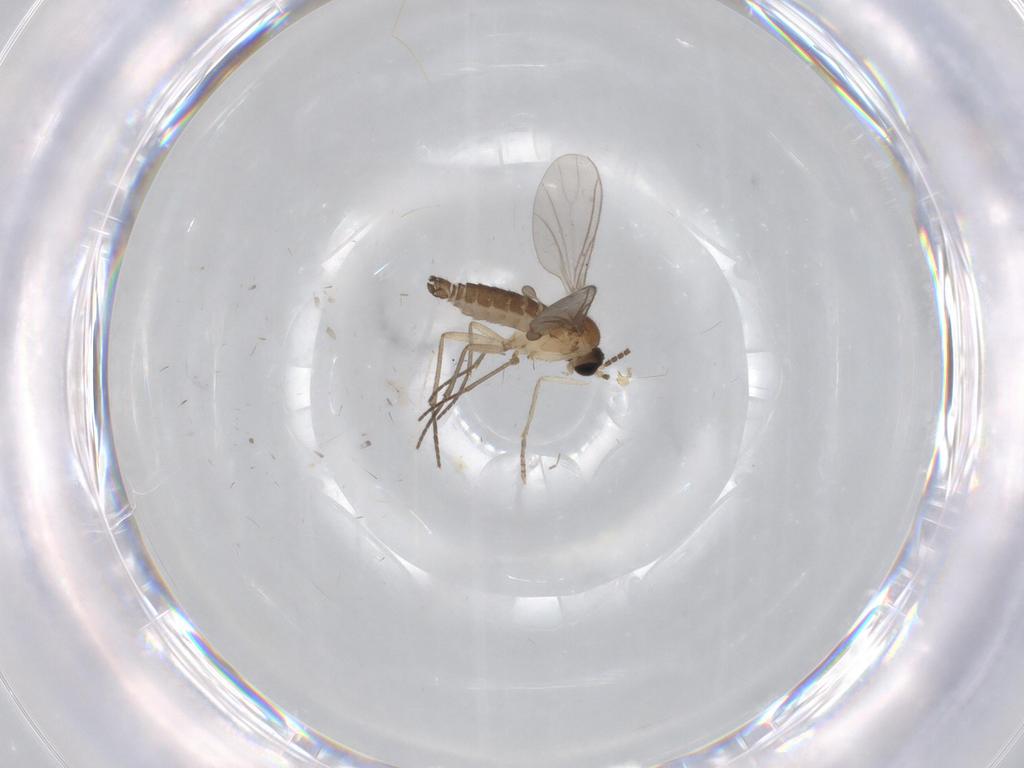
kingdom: Animalia
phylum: Arthropoda
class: Insecta
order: Diptera
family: Sciaridae
